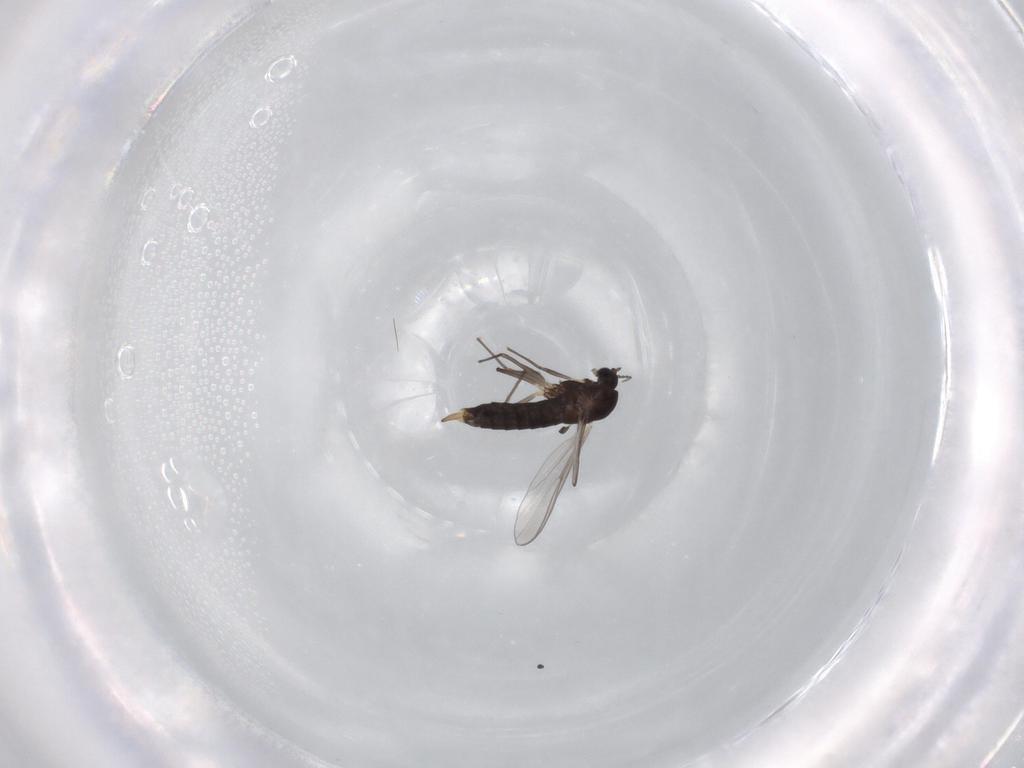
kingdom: Animalia
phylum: Arthropoda
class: Insecta
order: Diptera
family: Chironomidae
